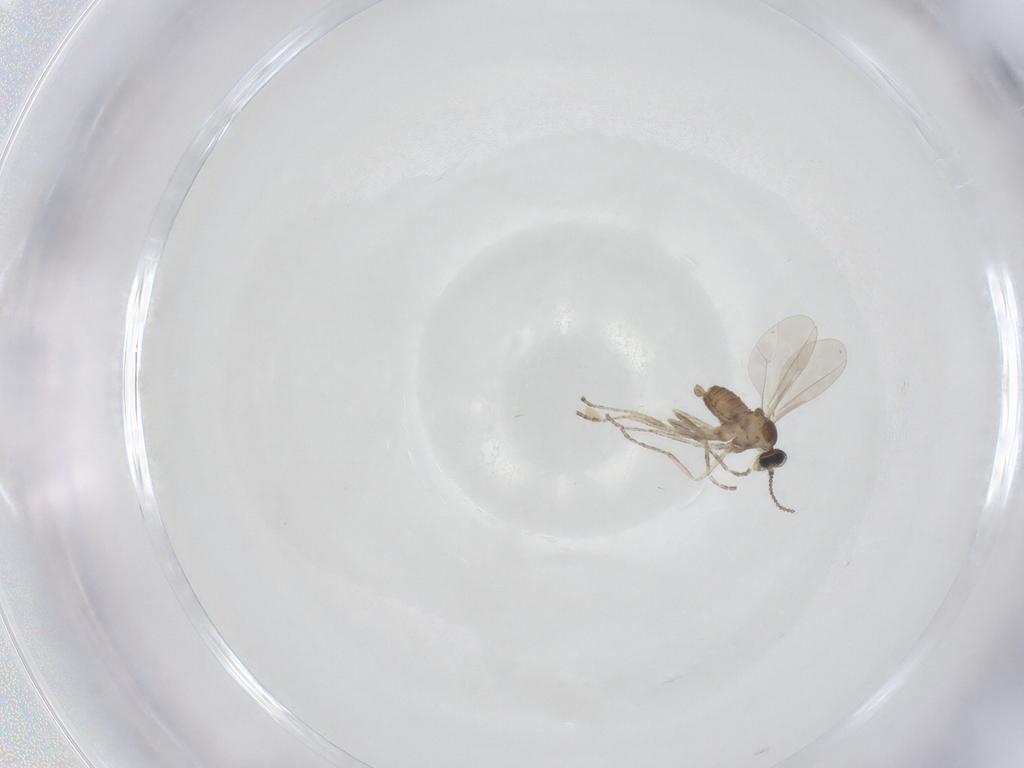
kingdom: Animalia
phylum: Arthropoda
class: Insecta
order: Diptera
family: Cecidomyiidae
